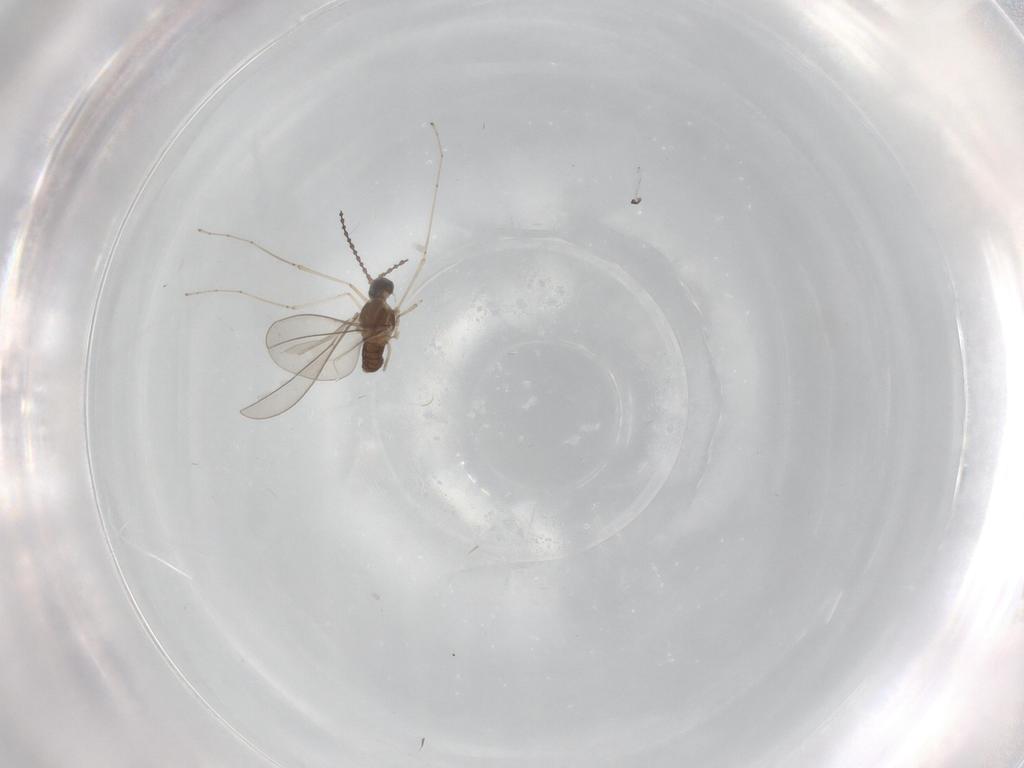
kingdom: Animalia
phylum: Arthropoda
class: Insecta
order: Diptera
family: Cecidomyiidae
